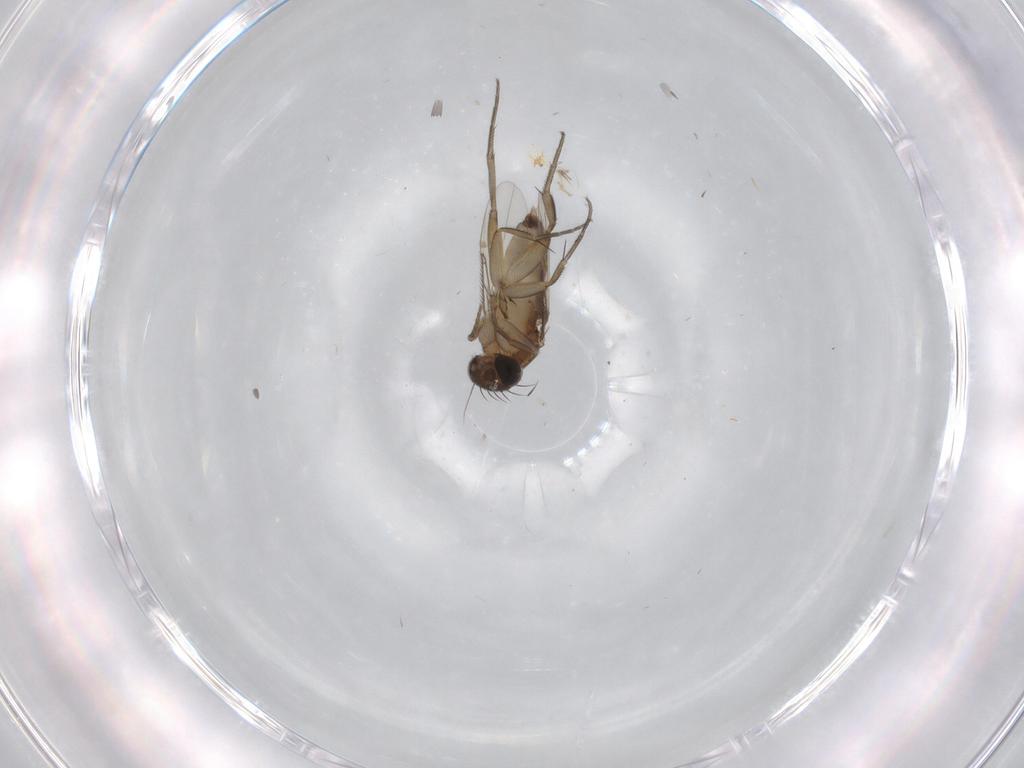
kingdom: Animalia
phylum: Arthropoda
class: Insecta
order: Diptera
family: Phoridae
